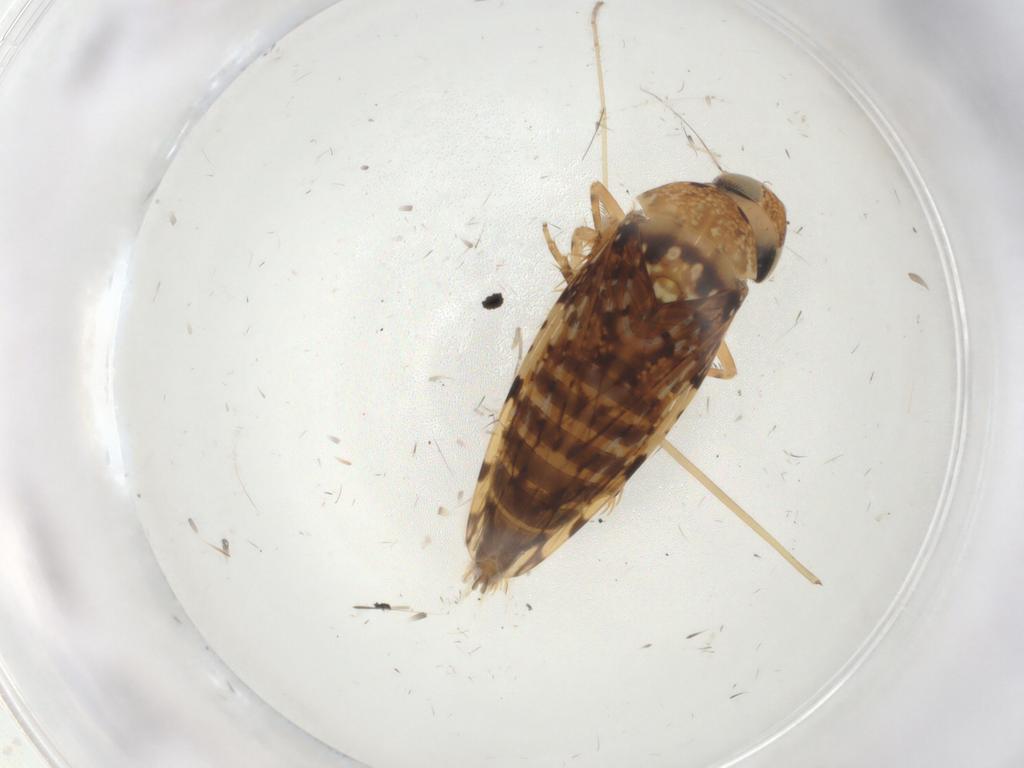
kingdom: Animalia
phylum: Arthropoda
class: Insecta
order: Hemiptera
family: Cicadellidae
